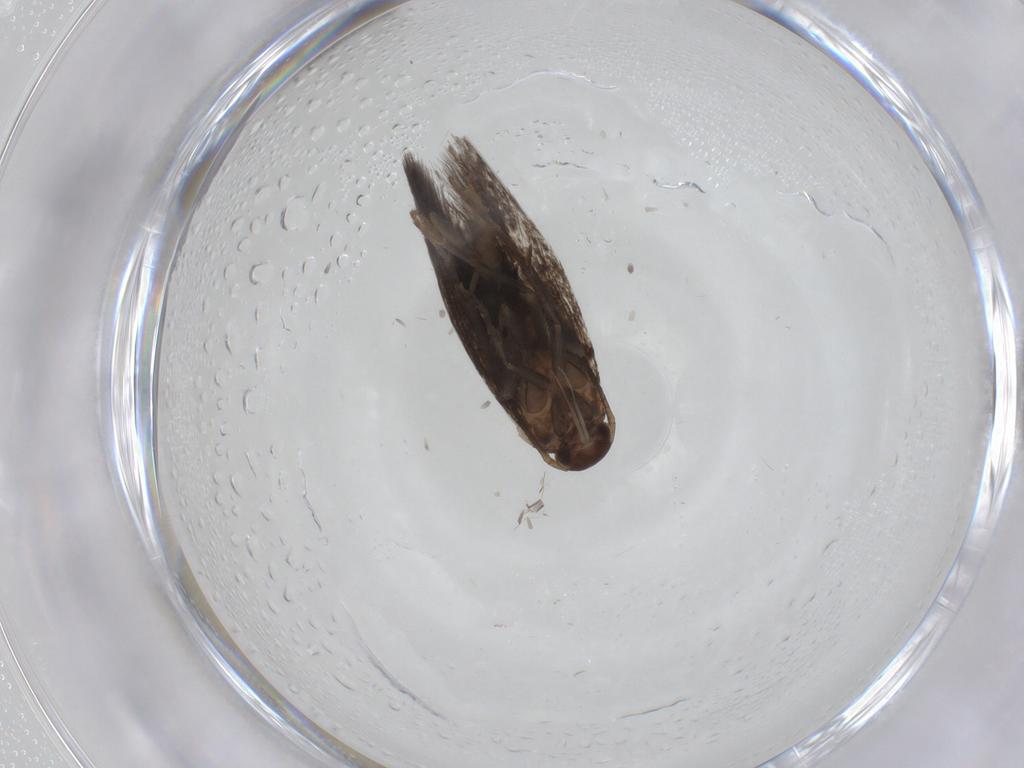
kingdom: Animalia
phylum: Arthropoda
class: Insecta
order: Lepidoptera
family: Elachistidae
